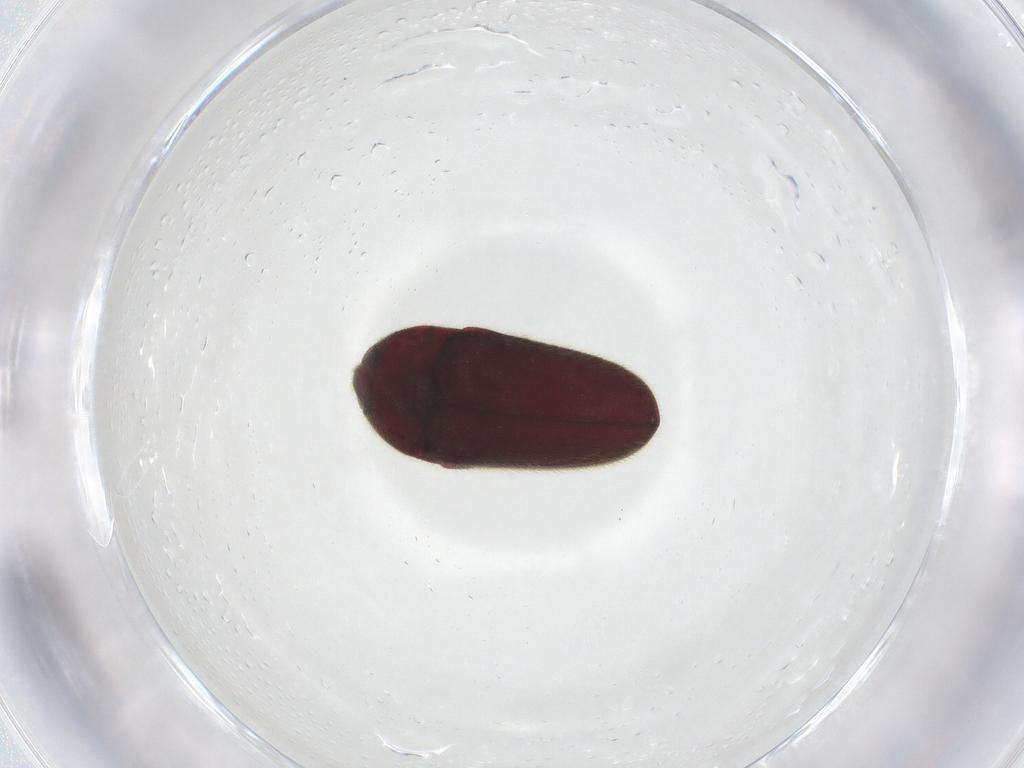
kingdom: Animalia
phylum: Arthropoda
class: Insecta
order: Coleoptera
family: Throscidae
